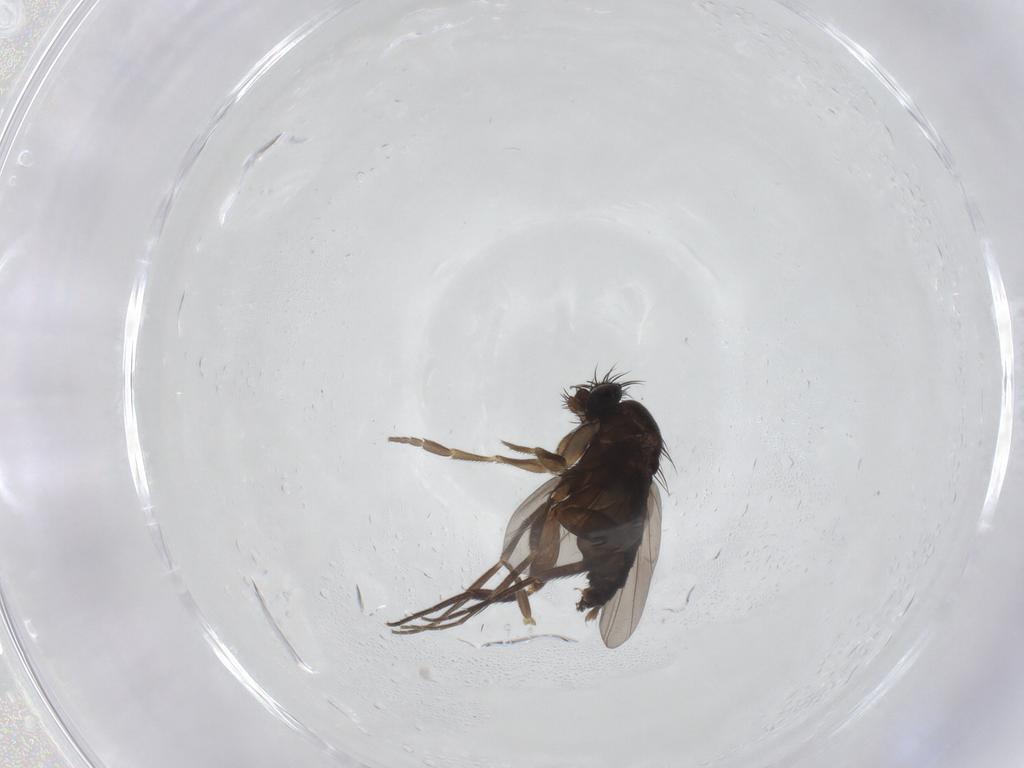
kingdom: Animalia
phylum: Arthropoda
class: Insecta
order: Diptera
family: Phoridae
